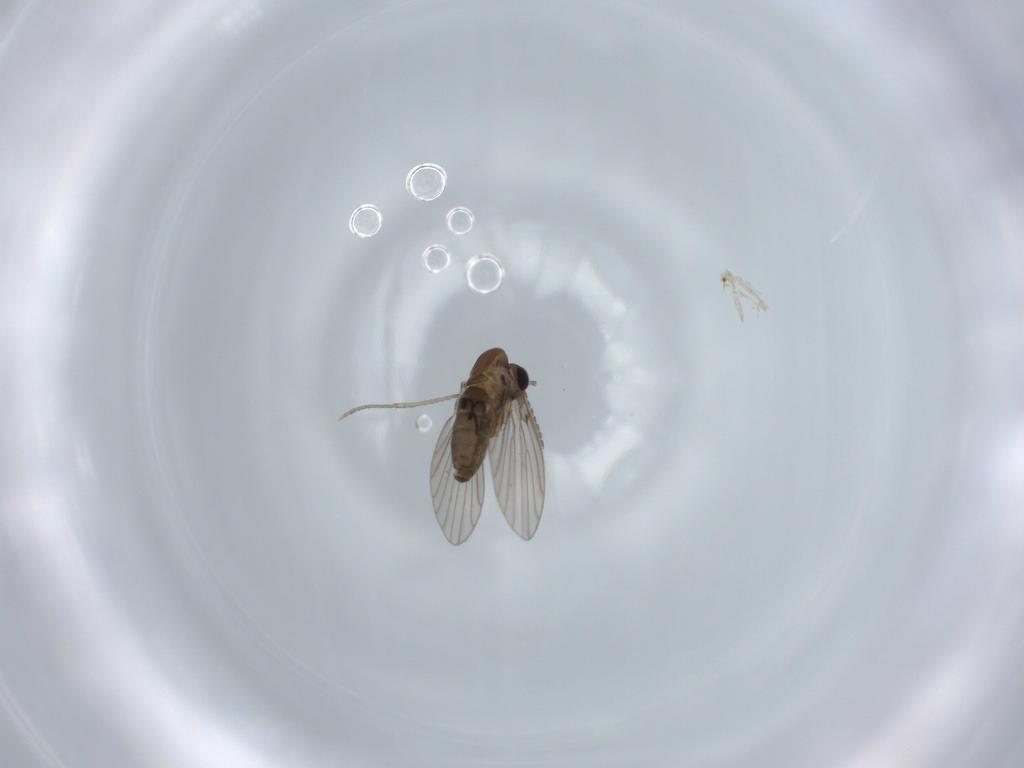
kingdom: Animalia
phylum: Arthropoda
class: Insecta
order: Diptera
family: Psychodidae
